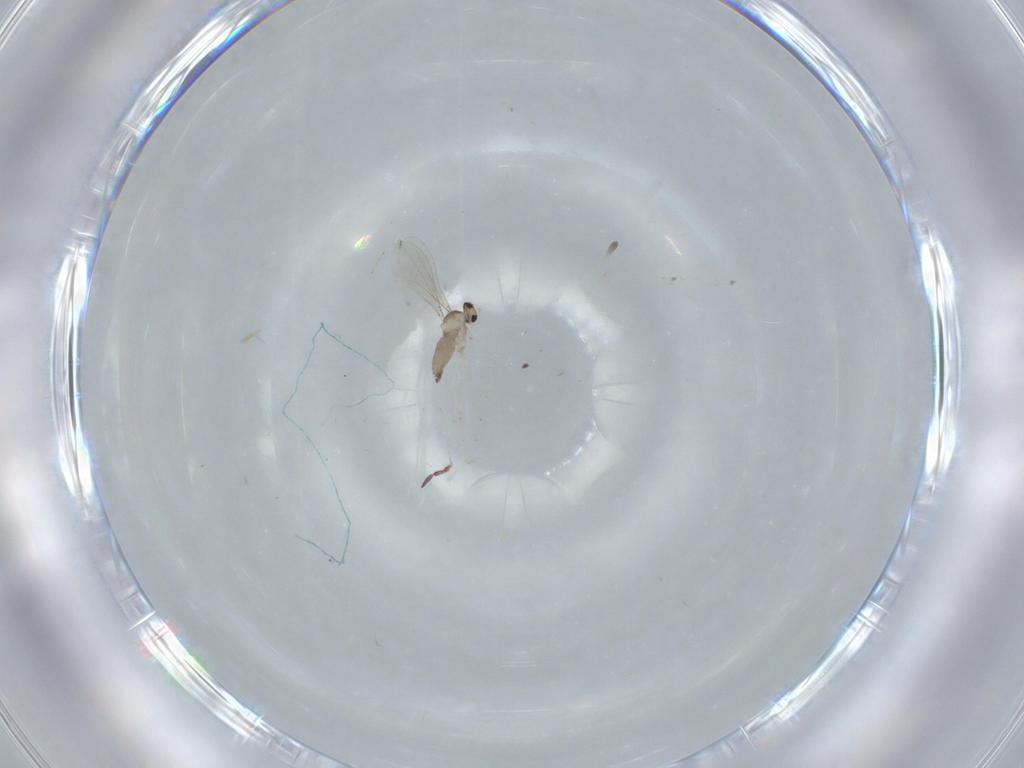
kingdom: Animalia
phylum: Arthropoda
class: Insecta
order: Diptera
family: Cecidomyiidae
